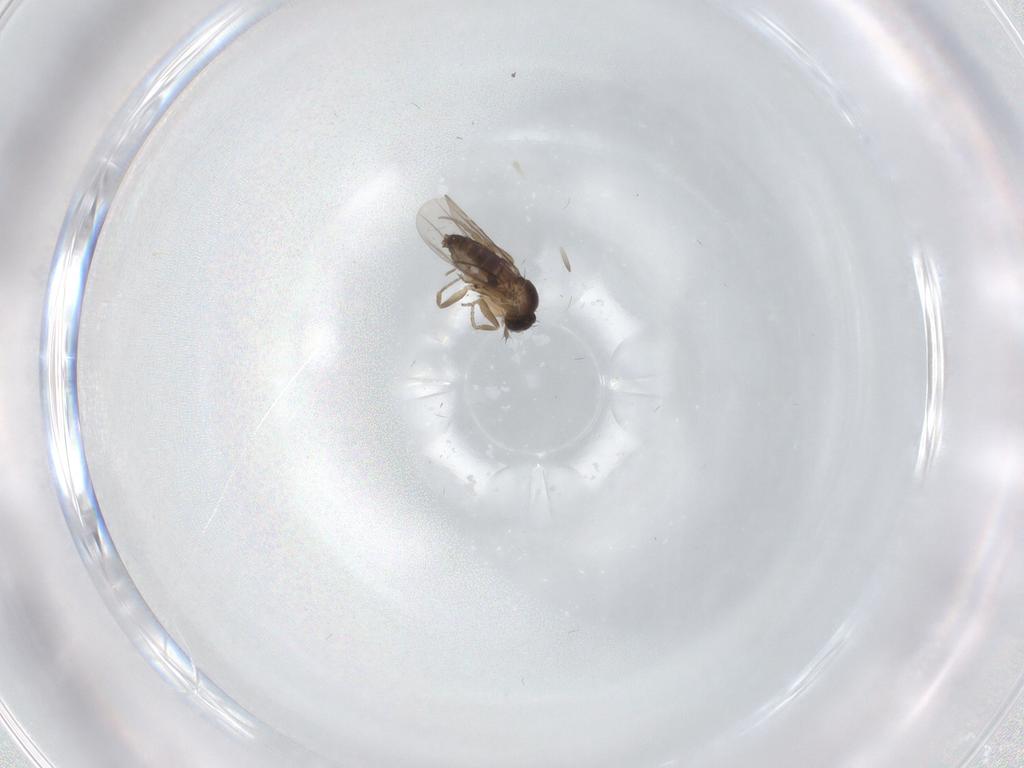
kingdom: Animalia
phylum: Arthropoda
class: Insecta
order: Diptera
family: Phoridae
